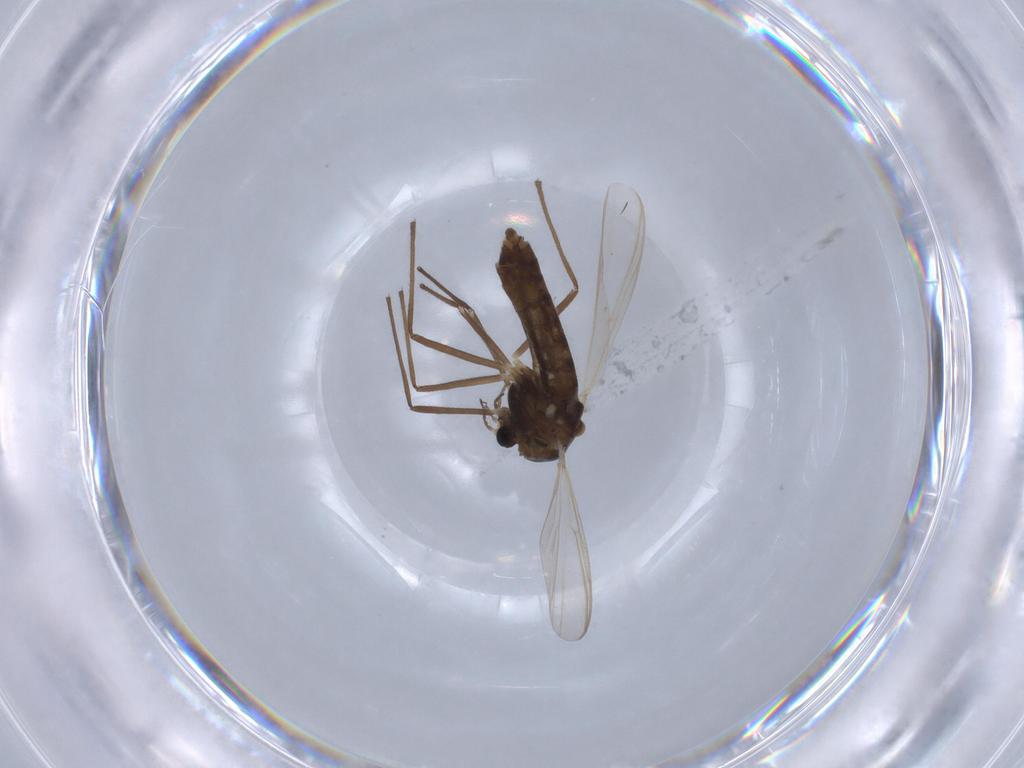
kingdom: Animalia
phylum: Arthropoda
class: Insecta
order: Diptera
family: Chironomidae
